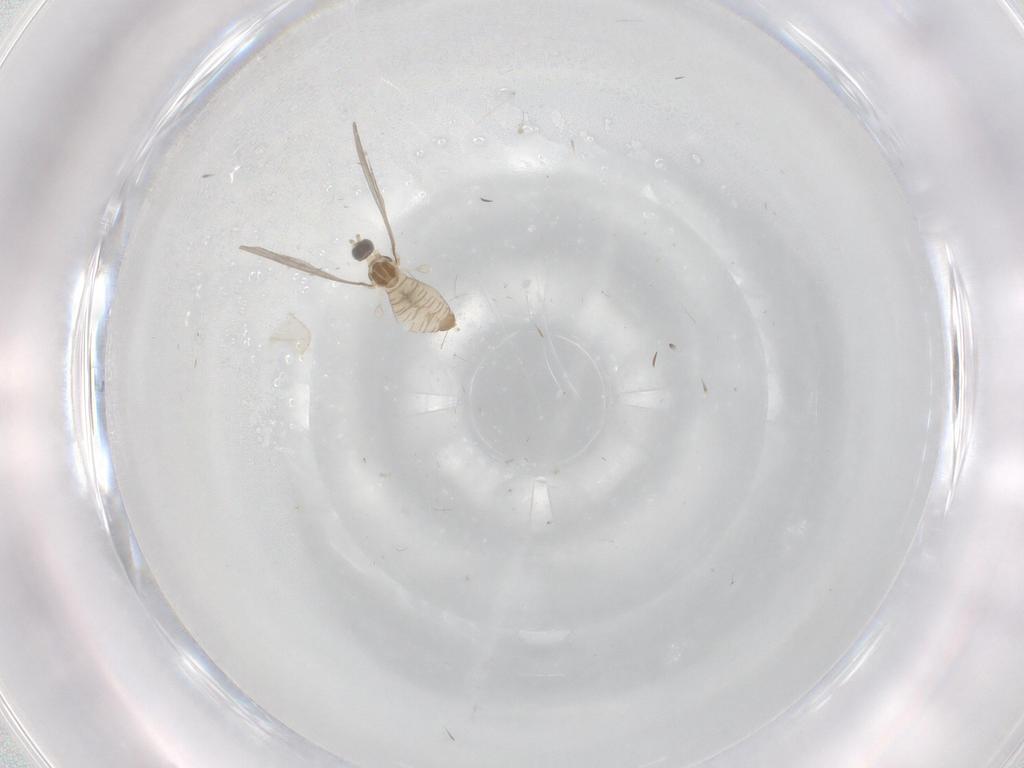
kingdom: Animalia
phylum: Arthropoda
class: Insecta
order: Diptera
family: Cecidomyiidae
